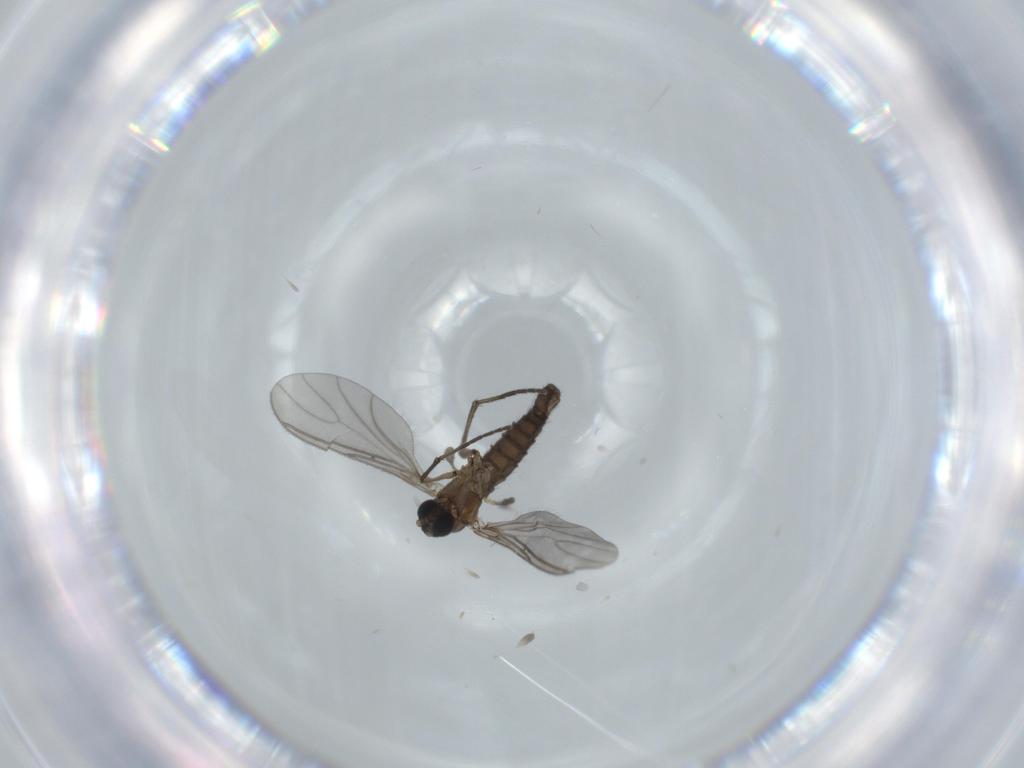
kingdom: Animalia
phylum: Arthropoda
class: Insecta
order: Diptera
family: Sciaridae
